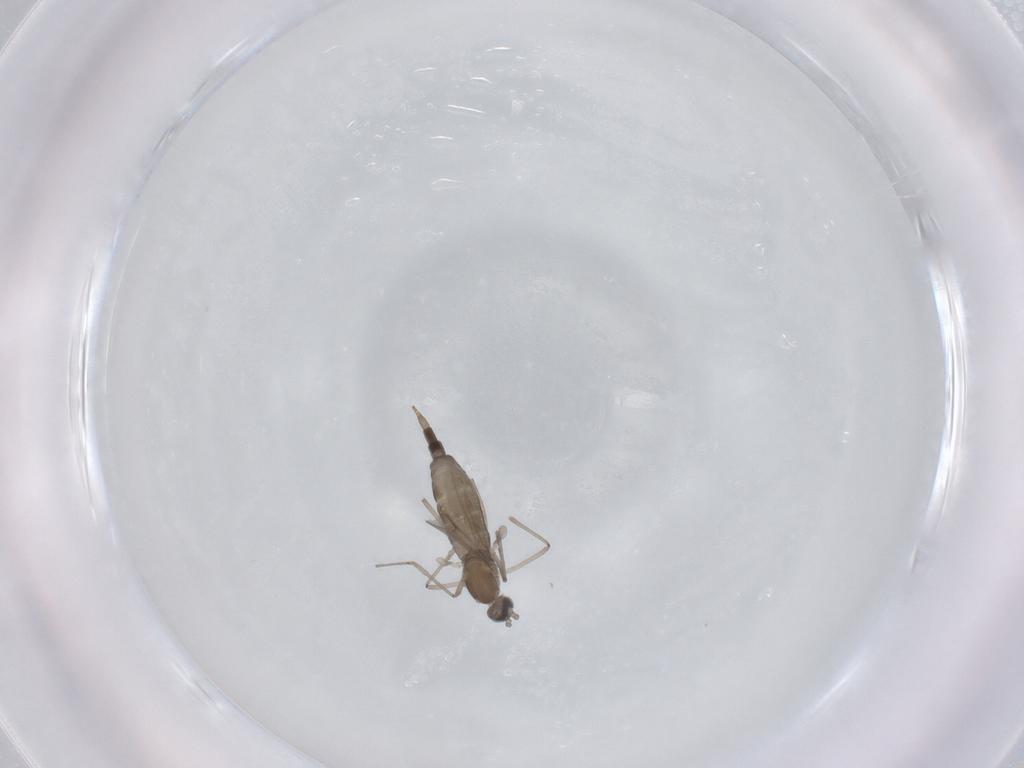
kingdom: Animalia
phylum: Arthropoda
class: Insecta
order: Diptera
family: Cecidomyiidae
